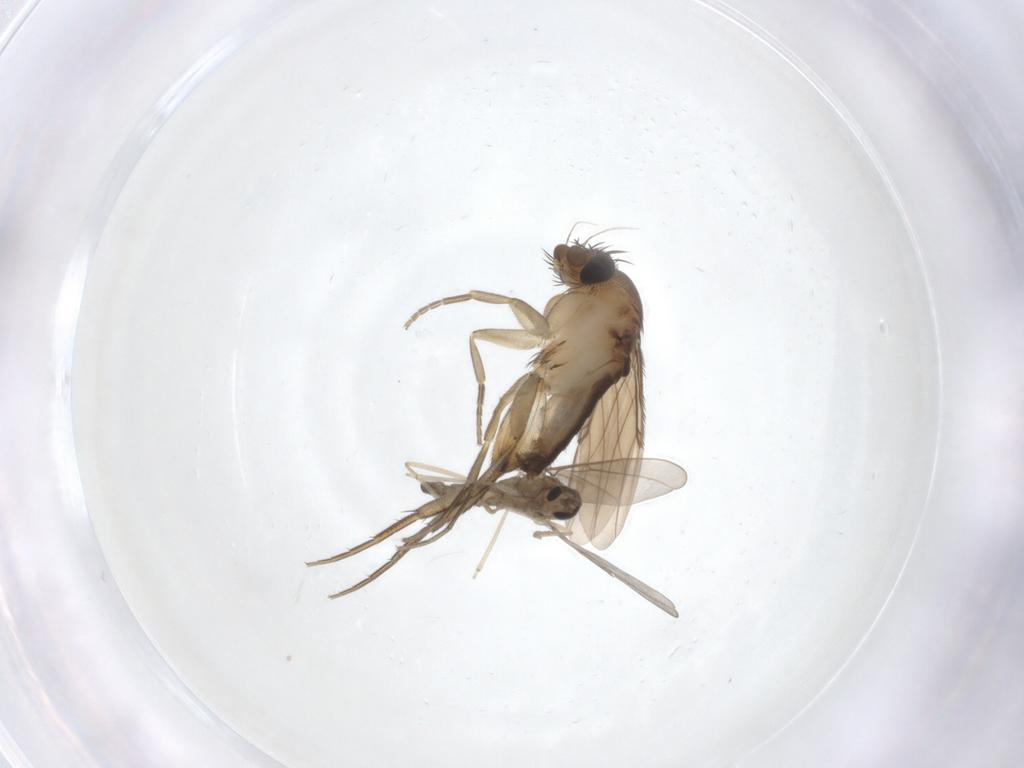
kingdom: Animalia
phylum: Arthropoda
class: Insecta
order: Diptera
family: Phoridae
